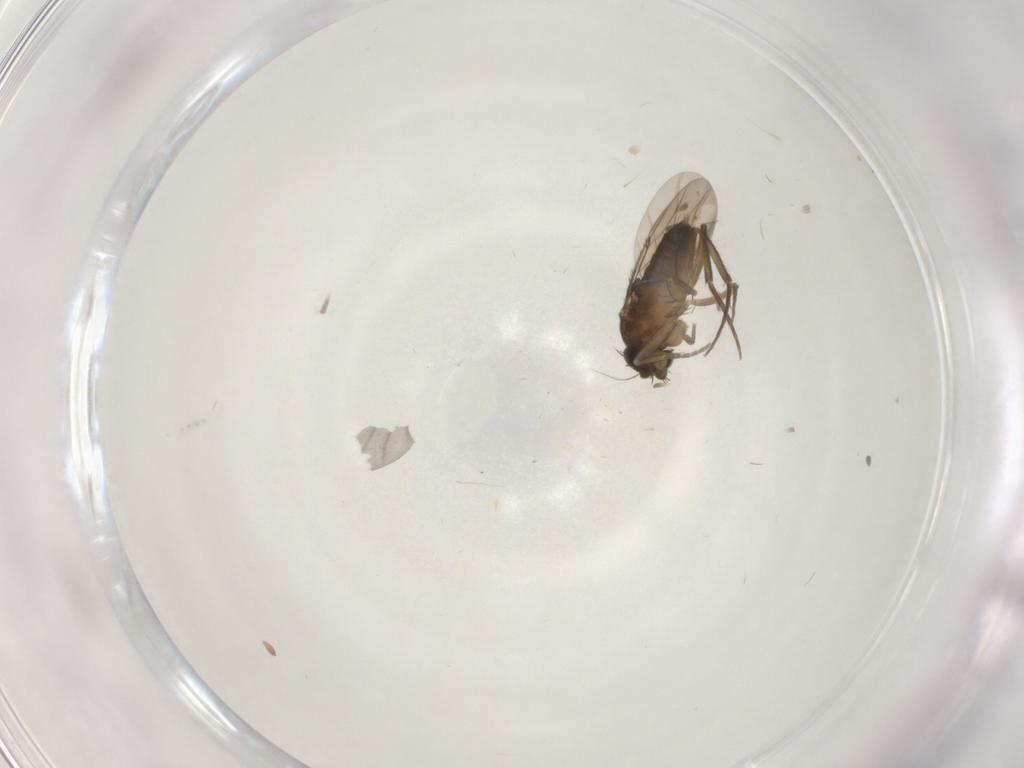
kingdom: Animalia
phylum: Arthropoda
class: Insecta
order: Diptera
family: Phoridae
